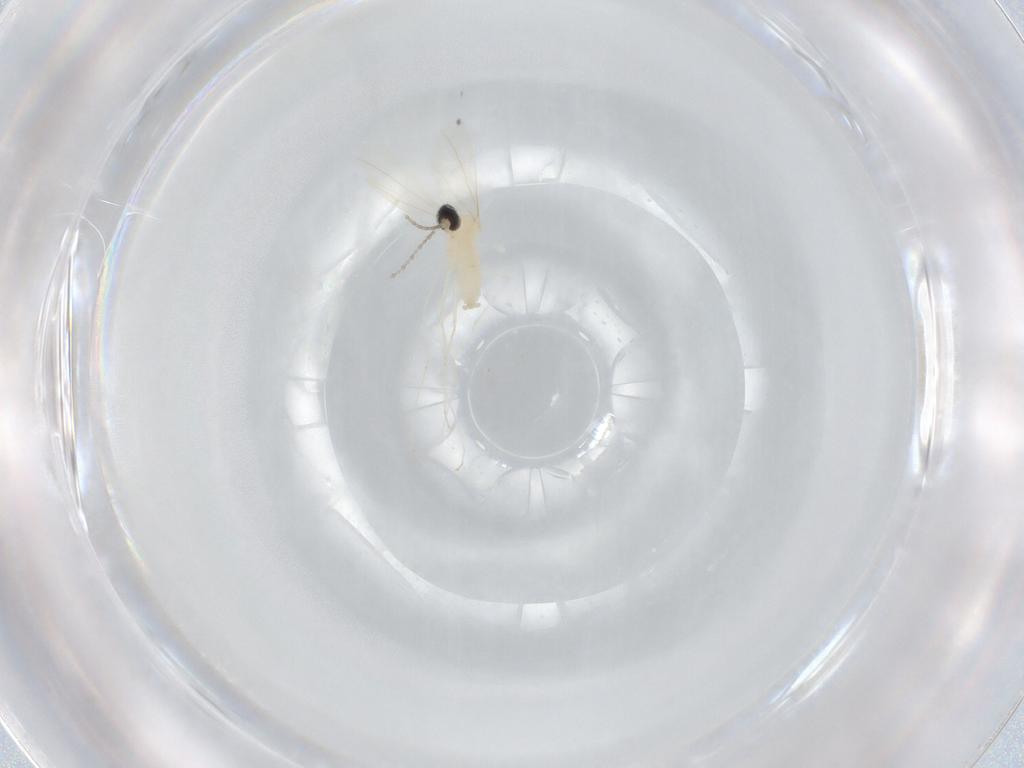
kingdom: Animalia
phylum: Arthropoda
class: Insecta
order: Diptera
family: Cecidomyiidae
